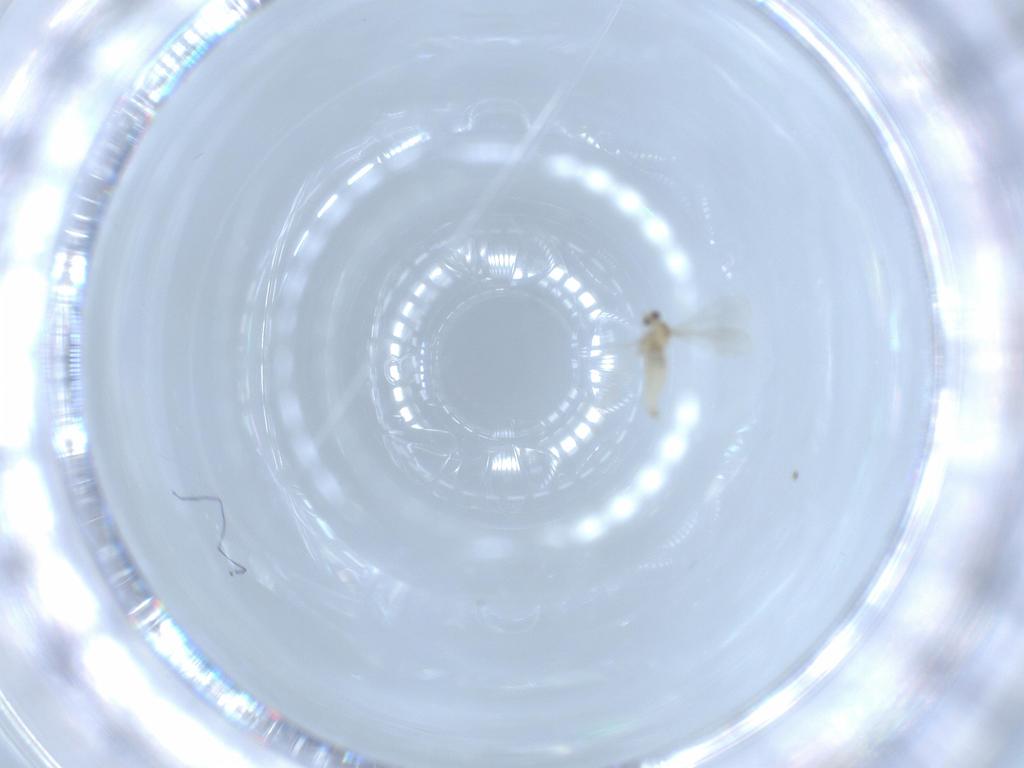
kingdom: Animalia
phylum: Arthropoda
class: Insecta
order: Diptera
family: Cecidomyiidae
